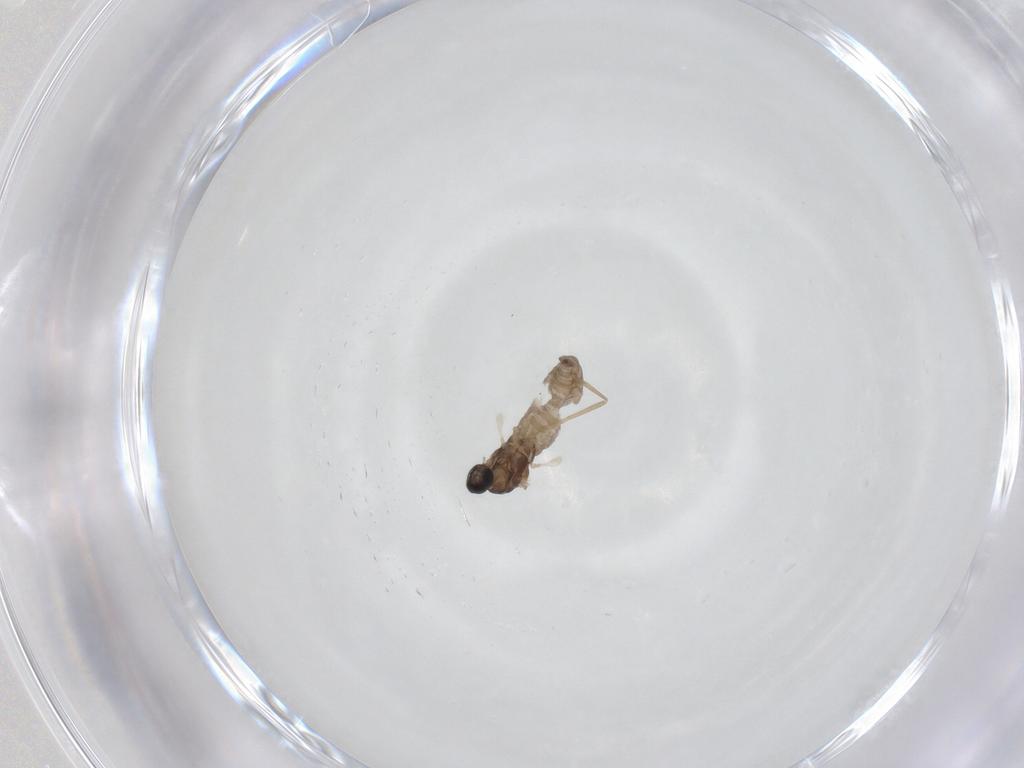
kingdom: Animalia
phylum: Arthropoda
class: Insecta
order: Diptera
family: Cecidomyiidae
